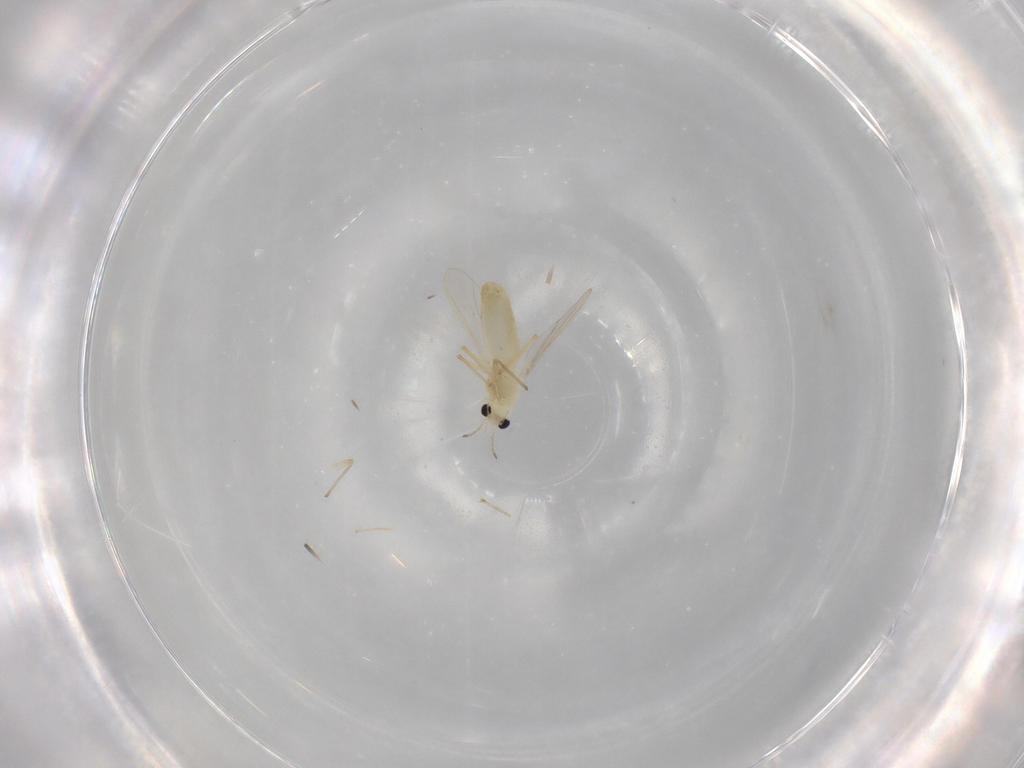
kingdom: Animalia
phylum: Arthropoda
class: Insecta
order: Diptera
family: Chironomidae
